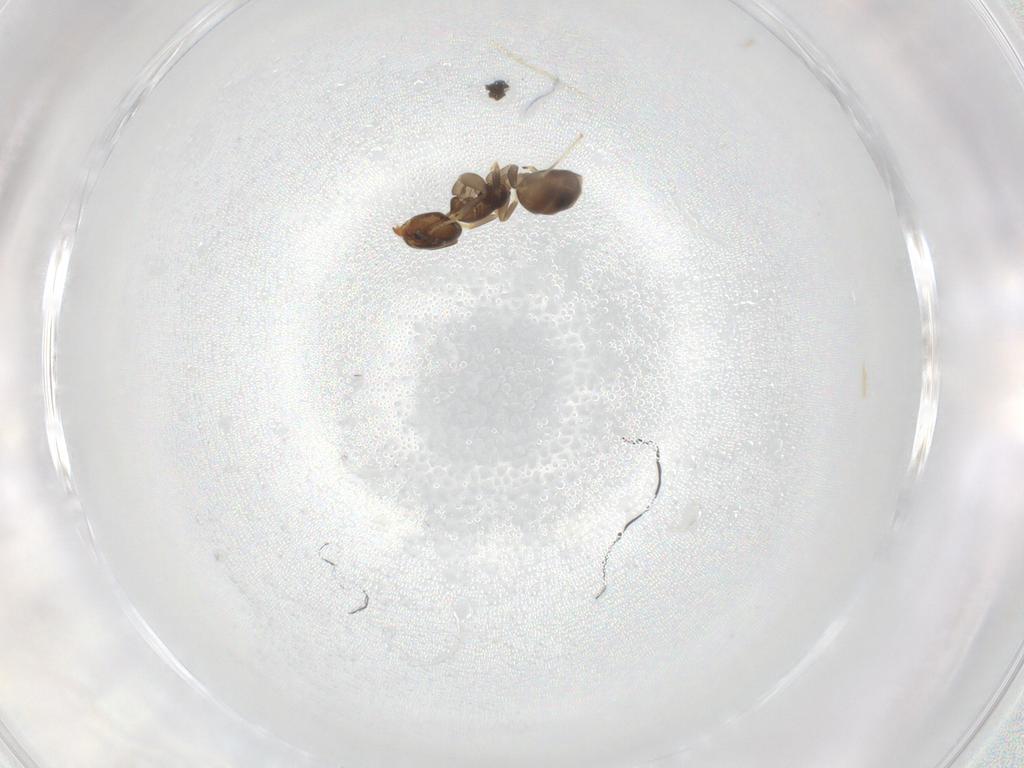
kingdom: Animalia
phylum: Arthropoda
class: Insecta
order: Hymenoptera
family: Formicidae
